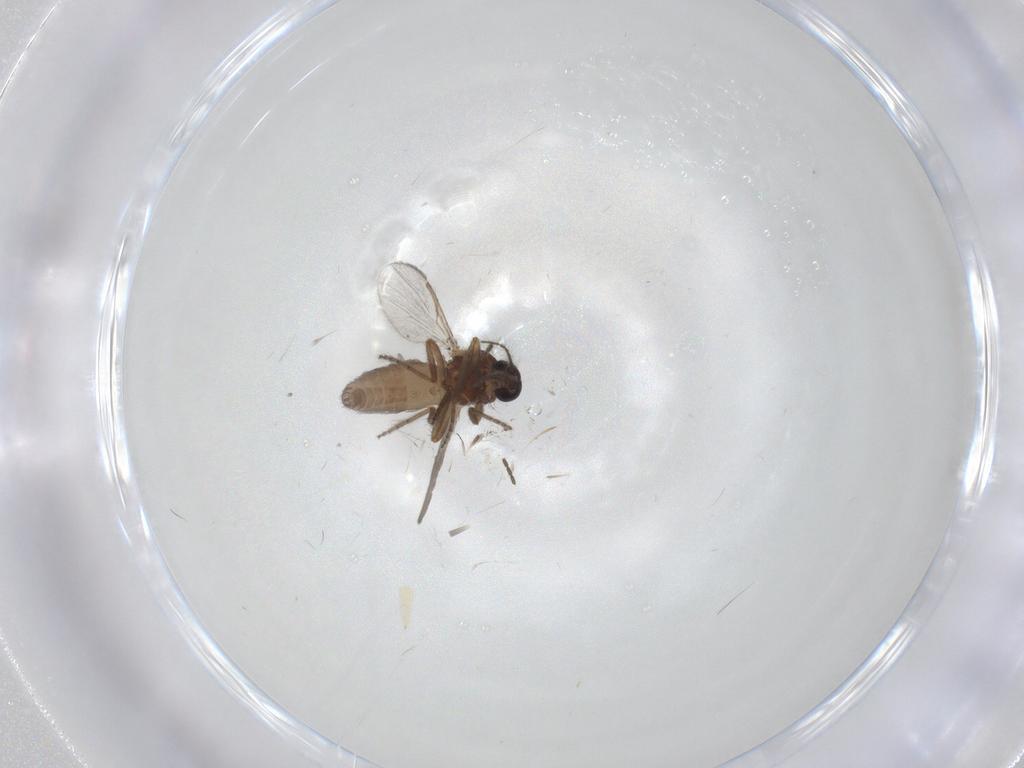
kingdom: Animalia
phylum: Arthropoda
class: Insecta
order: Diptera
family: Ceratopogonidae
